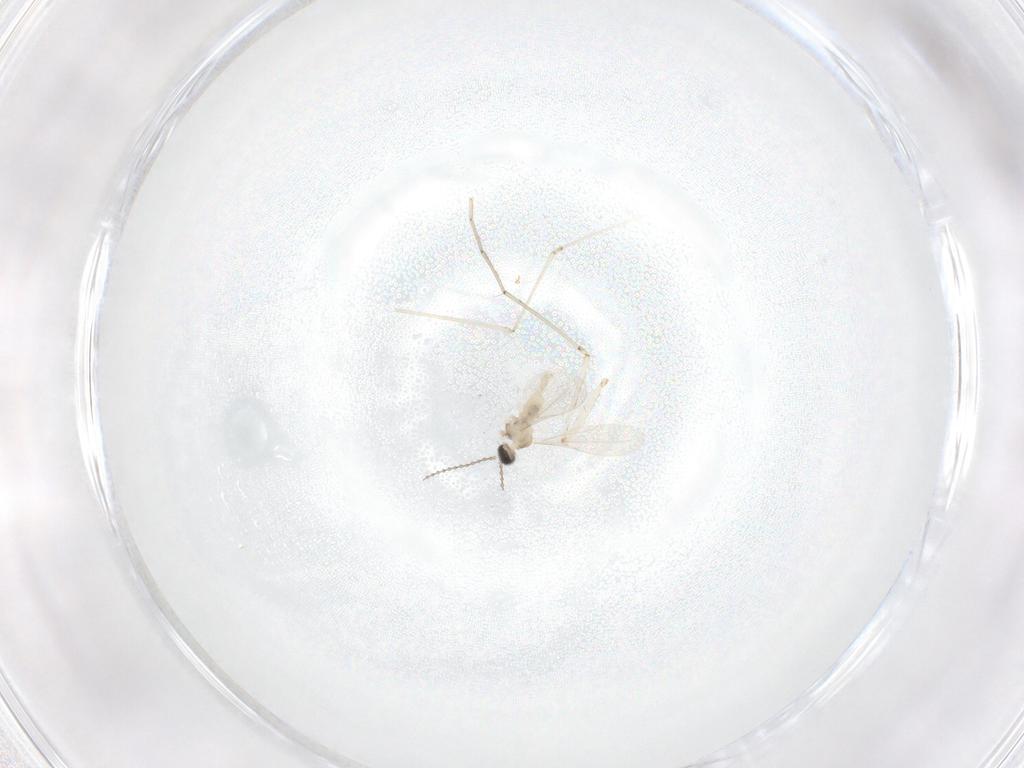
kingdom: Animalia
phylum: Arthropoda
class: Insecta
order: Diptera
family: Cecidomyiidae
